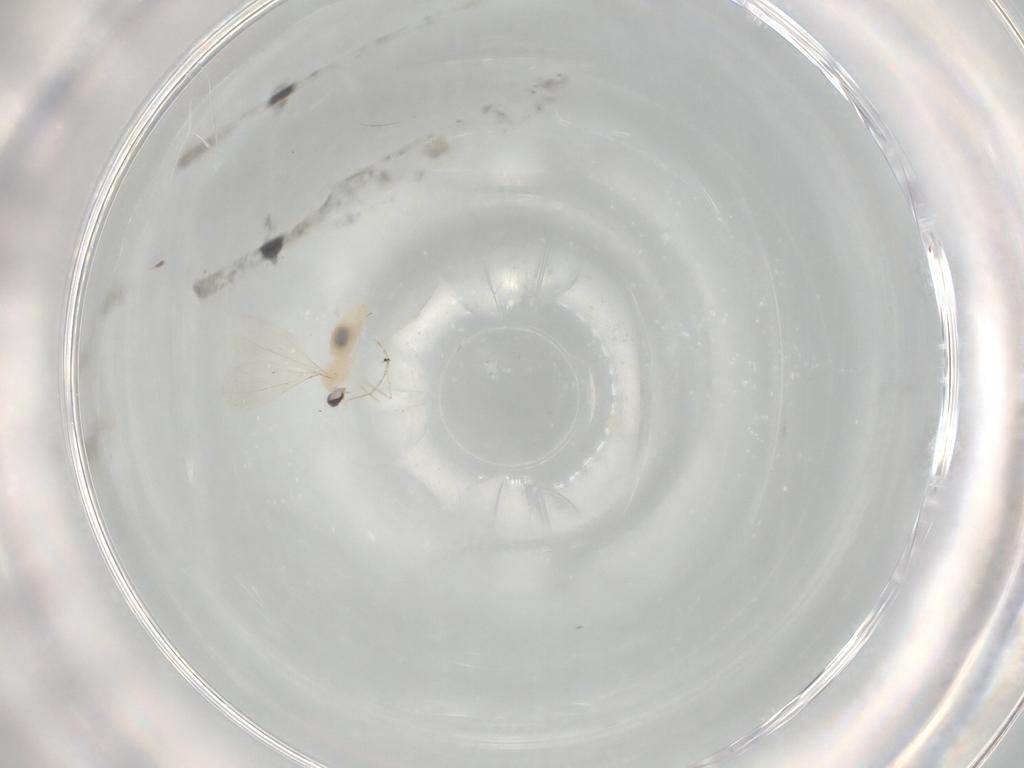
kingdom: Animalia
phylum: Arthropoda
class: Insecta
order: Diptera
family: Cecidomyiidae
